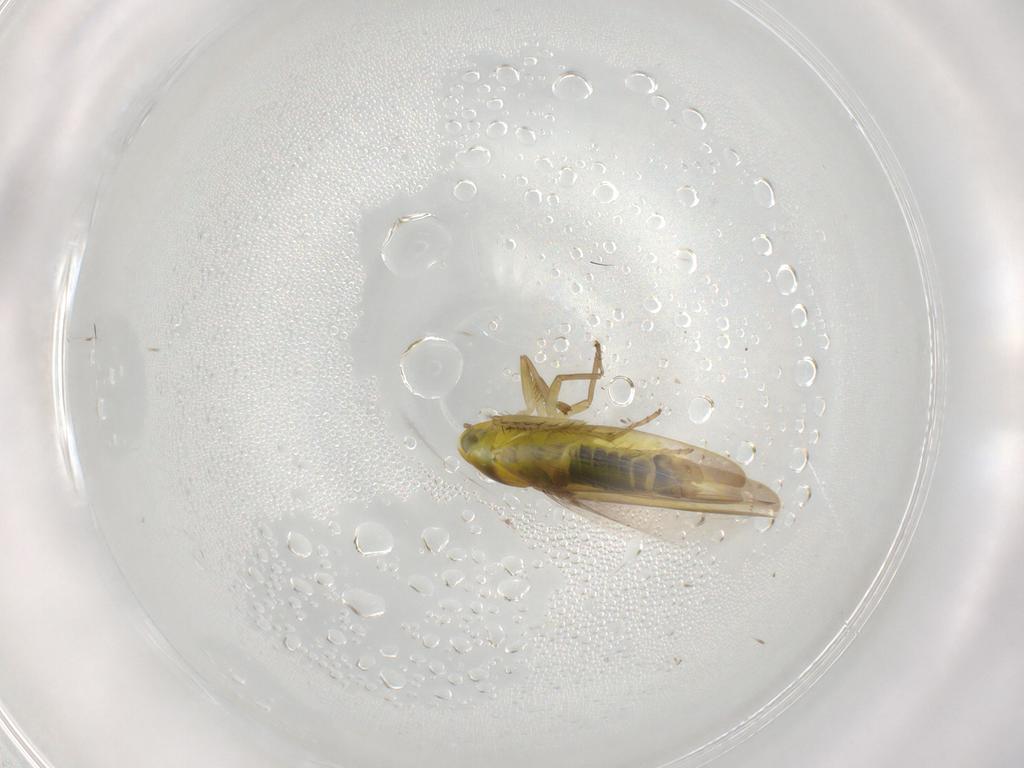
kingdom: Animalia
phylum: Arthropoda
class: Insecta
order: Hemiptera
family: Cicadellidae
